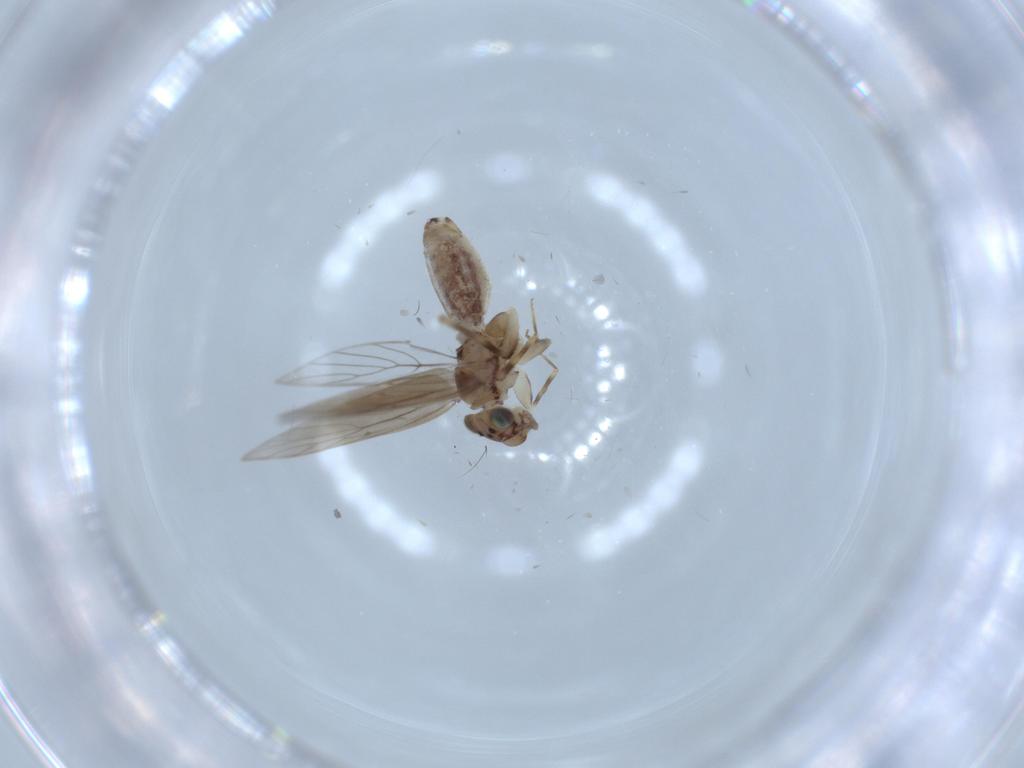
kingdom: Animalia
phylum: Arthropoda
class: Insecta
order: Psocodea
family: Lepidopsocidae
